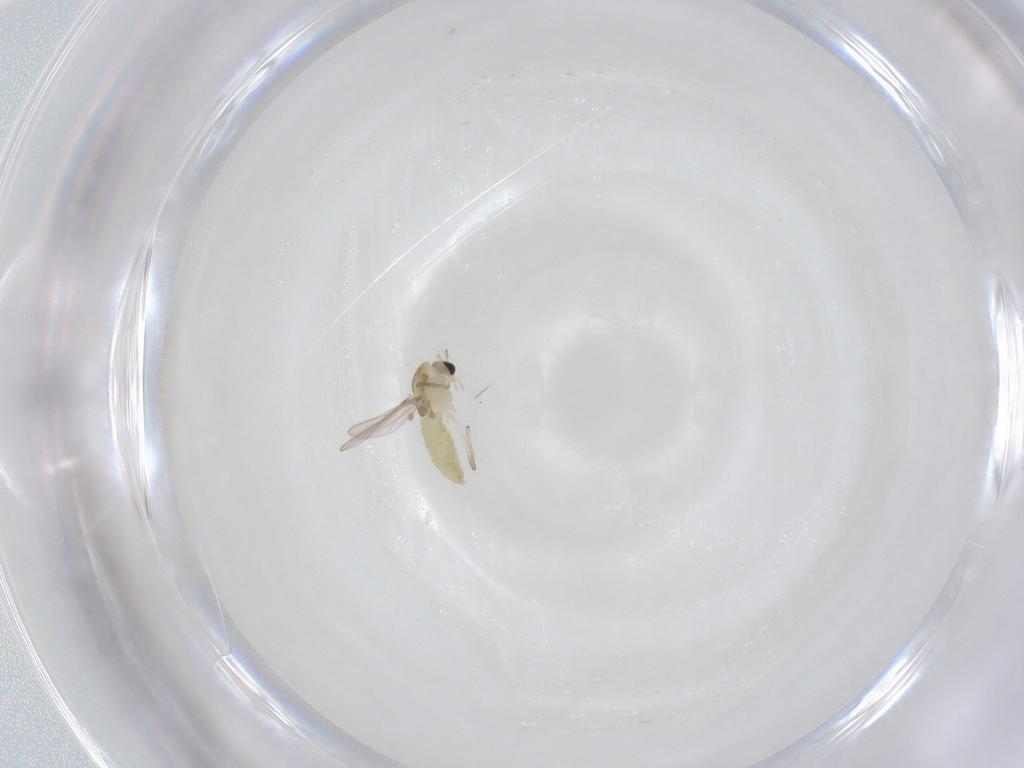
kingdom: Animalia
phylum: Arthropoda
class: Insecta
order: Diptera
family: Chironomidae
